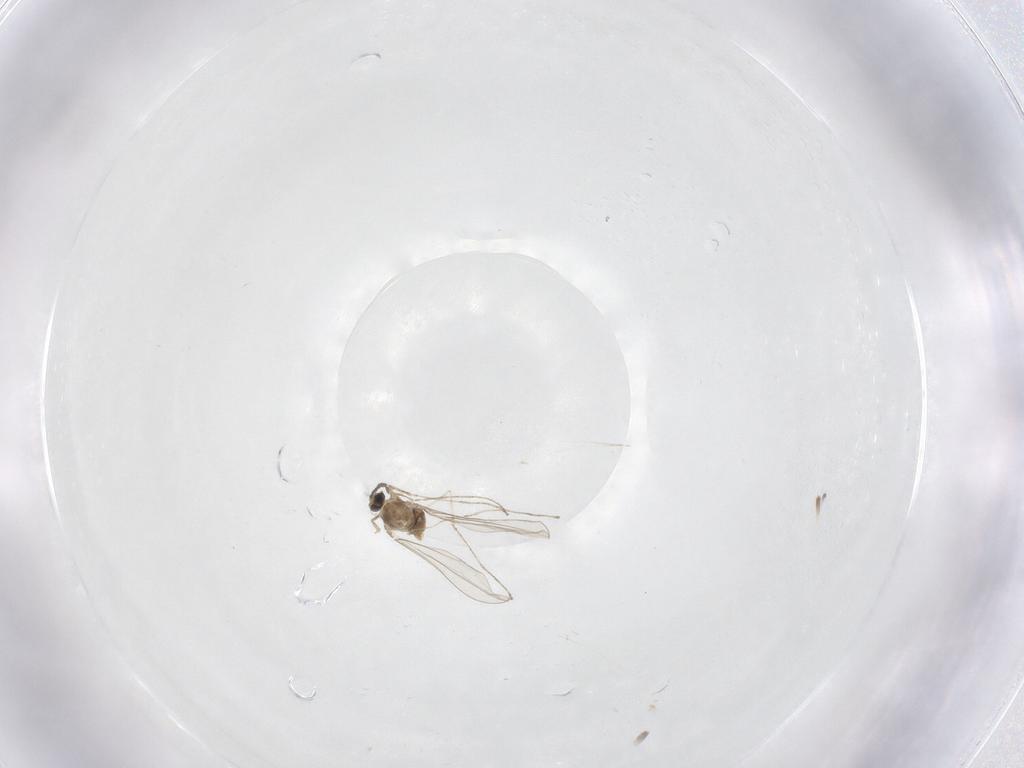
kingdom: Animalia
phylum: Arthropoda
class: Insecta
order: Diptera
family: Cecidomyiidae
